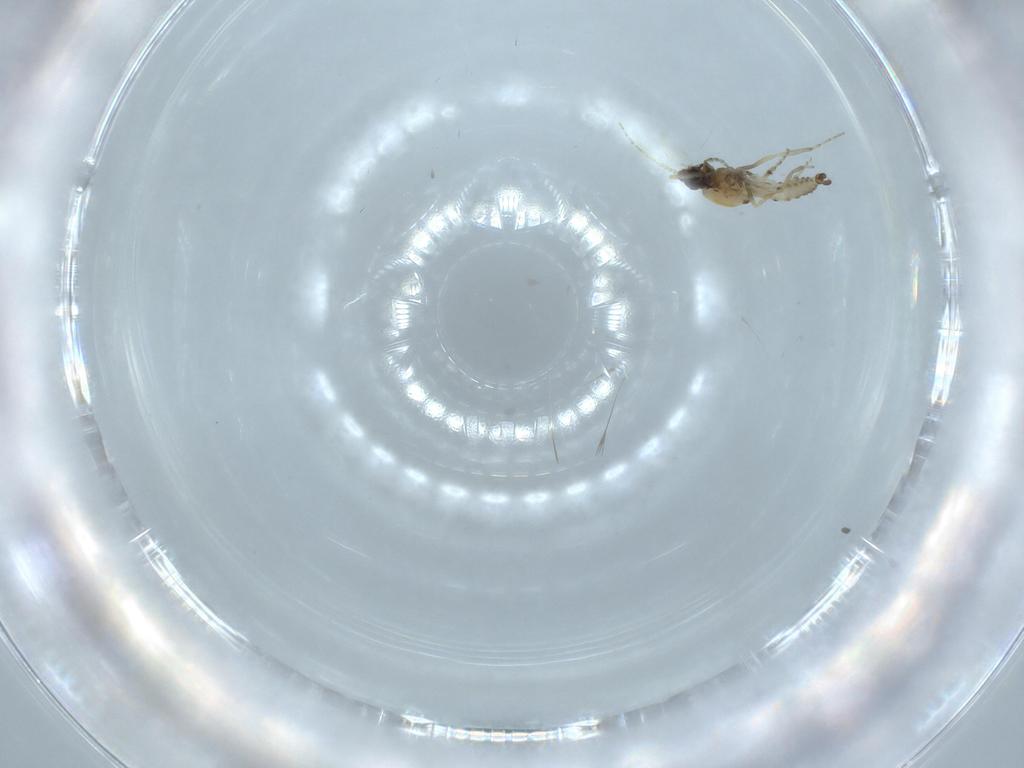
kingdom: Animalia
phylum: Arthropoda
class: Insecta
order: Diptera
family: Ceratopogonidae
